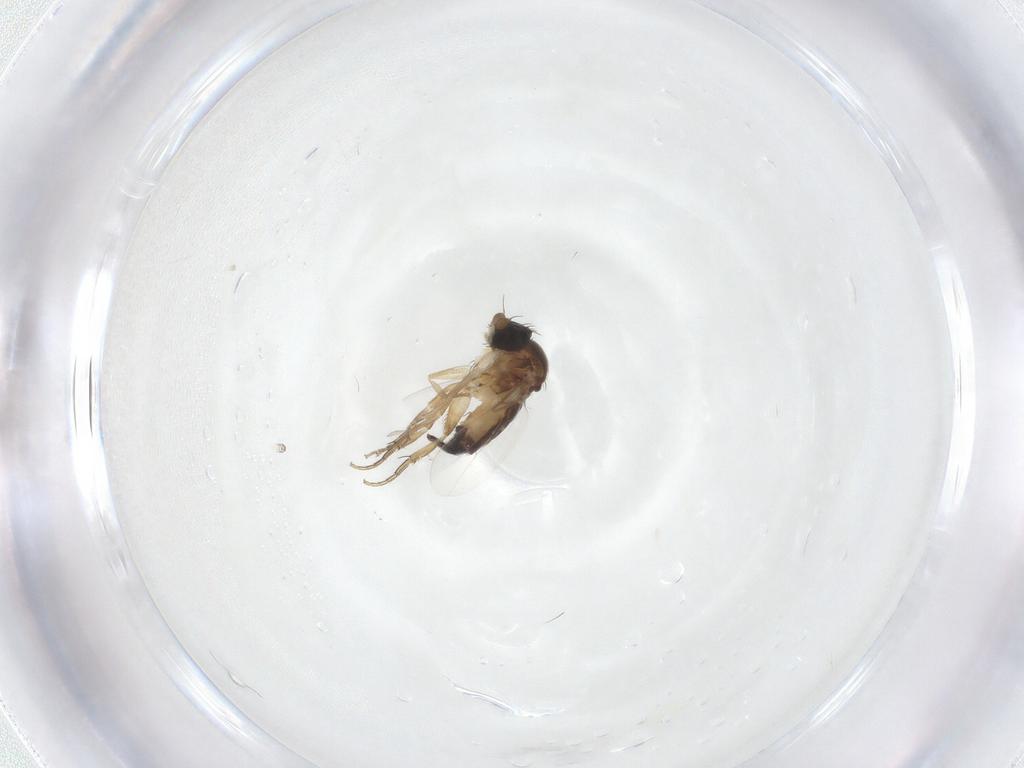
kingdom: Animalia
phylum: Arthropoda
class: Insecta
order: Diptera
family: Phoridae
